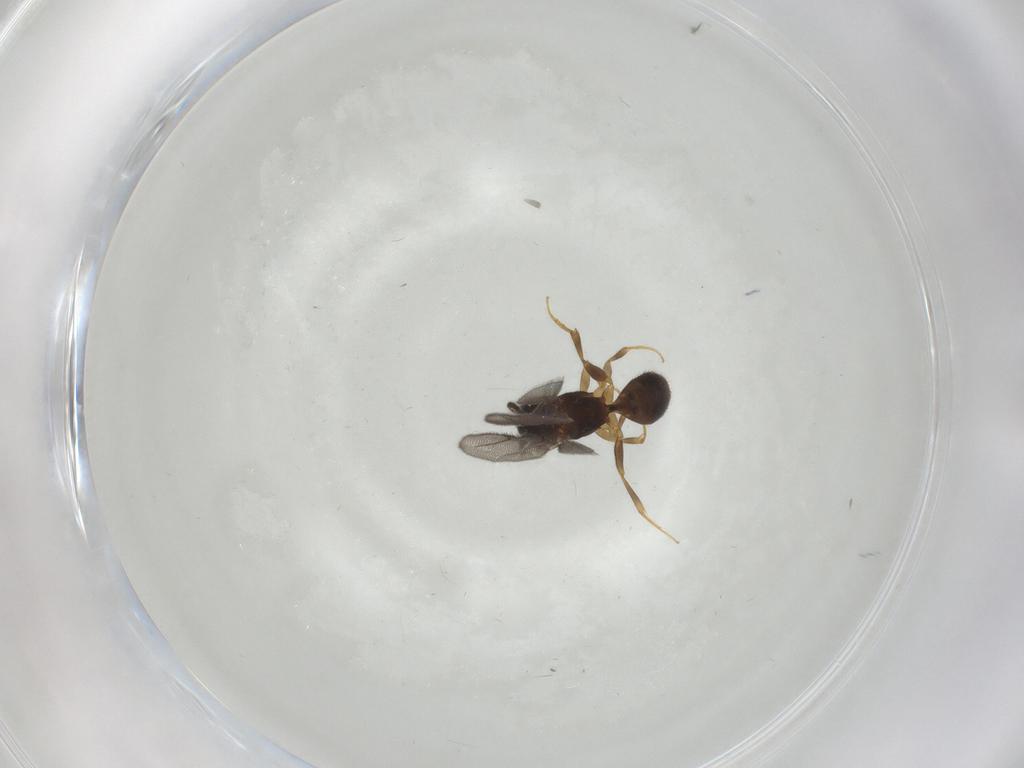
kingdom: Animalia
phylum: Arthropoda
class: Insecta
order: Hymenoptera
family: Bethylidae
